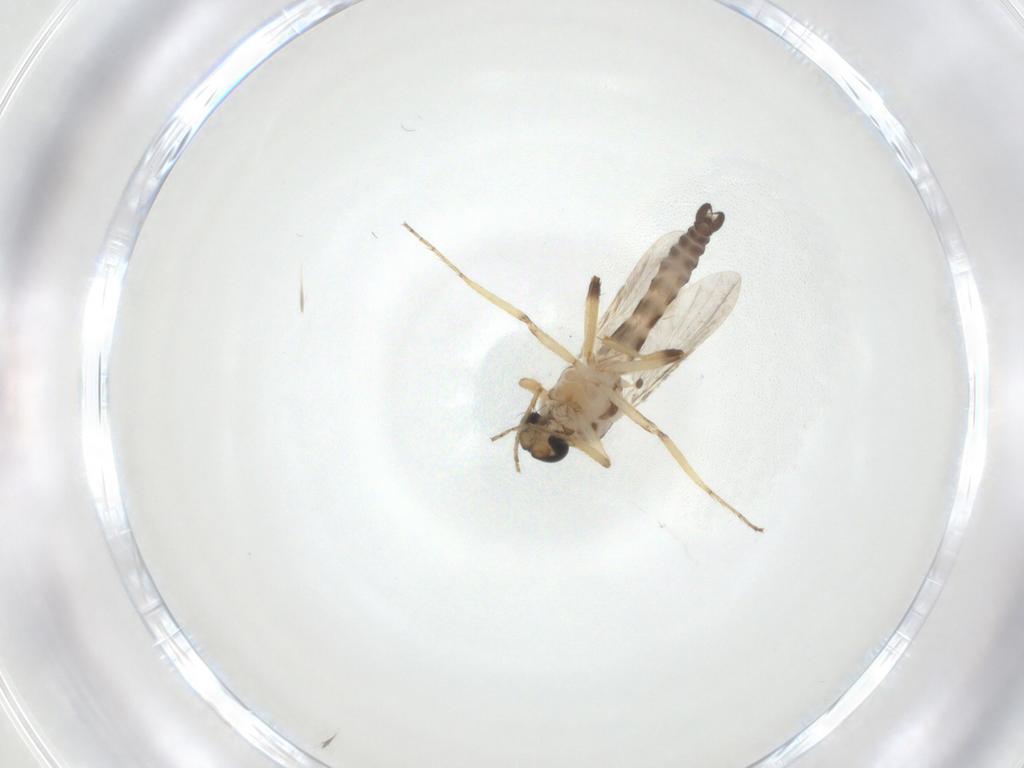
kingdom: Animalia
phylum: Arthropoda
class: Insecta
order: Diptera
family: Ceratopogonidae
